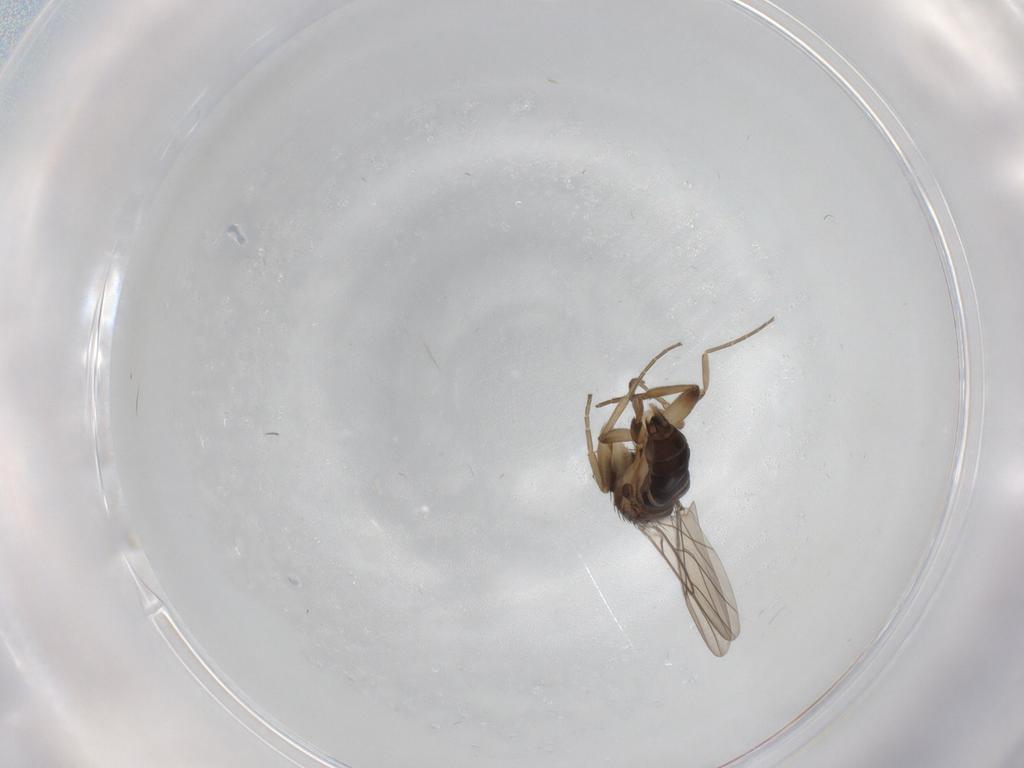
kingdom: Animalia
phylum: Arthropoda
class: Insecta
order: Diptera
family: Phoridae
